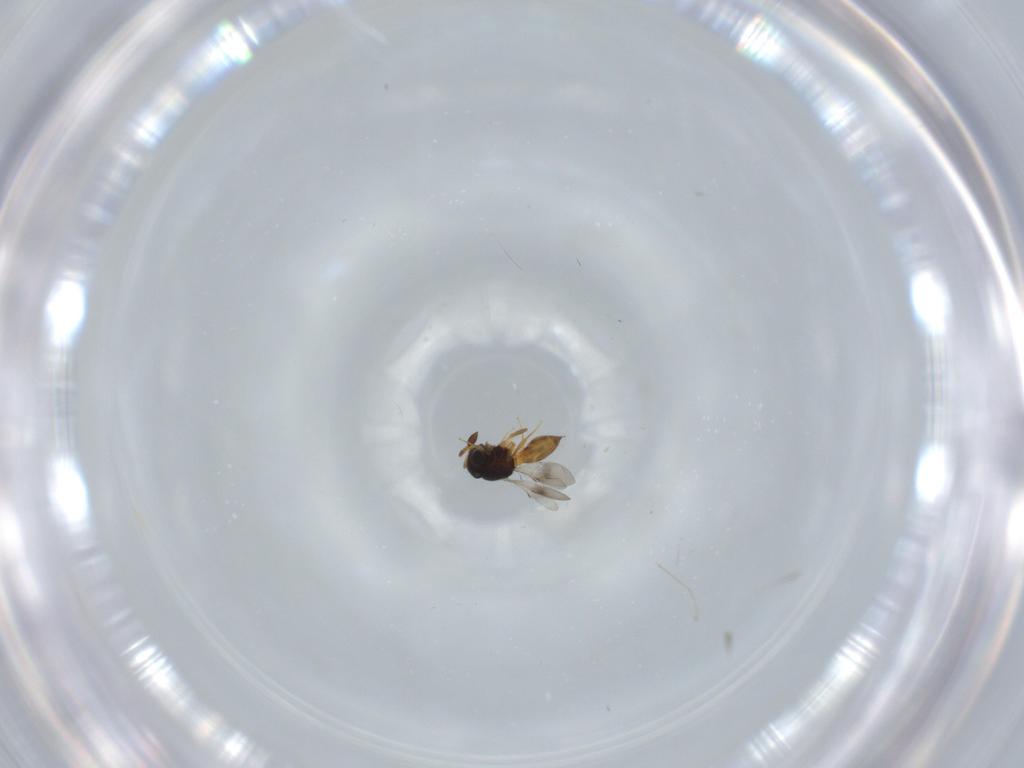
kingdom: Animalia
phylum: Arthropoda
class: Insecta
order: Hymenoptera
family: Scelionidae
